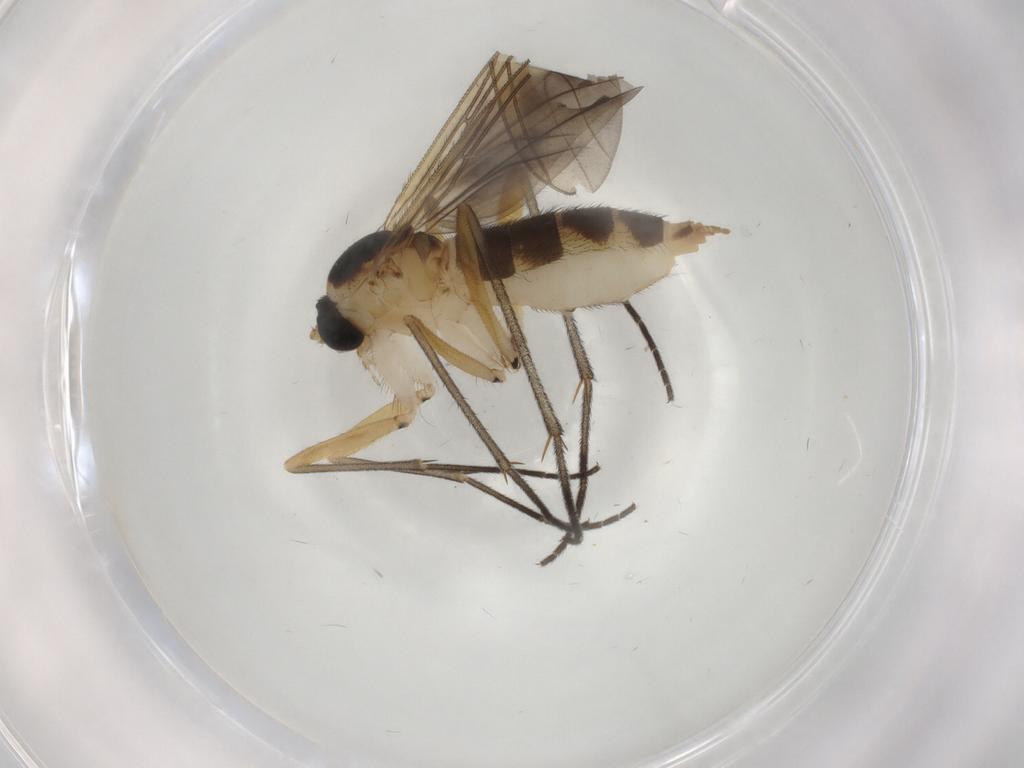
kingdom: Animalia
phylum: Arthropoda
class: Insecta
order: Diptera
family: Sciaridae
